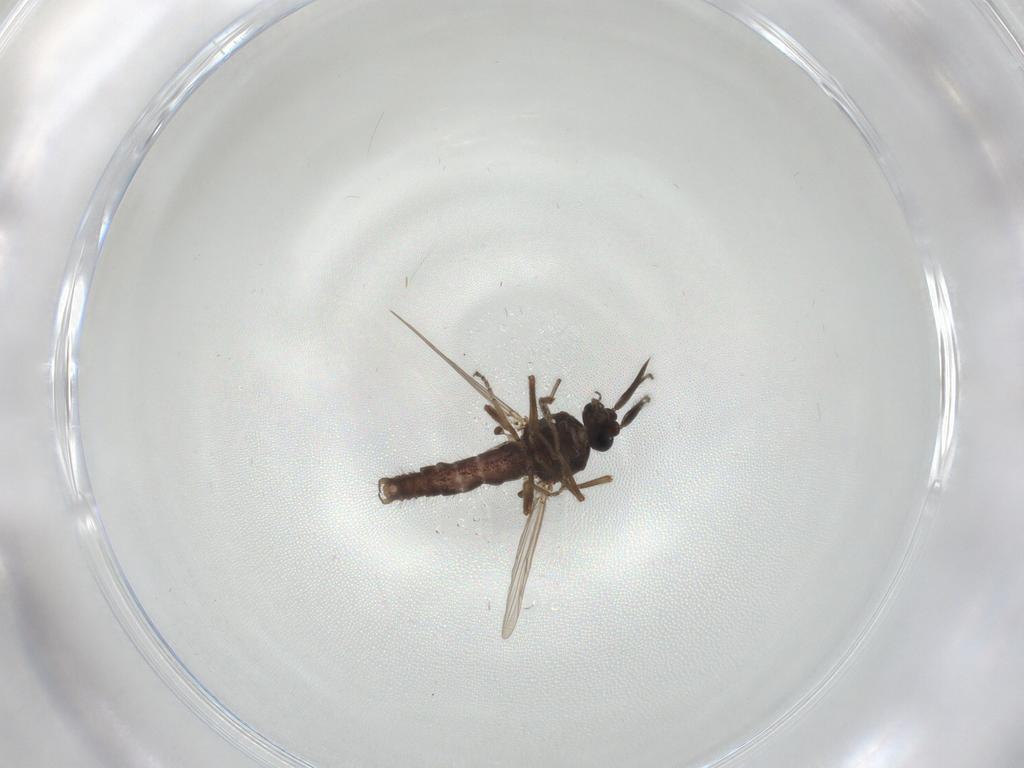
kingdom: Animalia
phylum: Arthropoda
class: Insecta
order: Diptera
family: Ceratopogonidae
